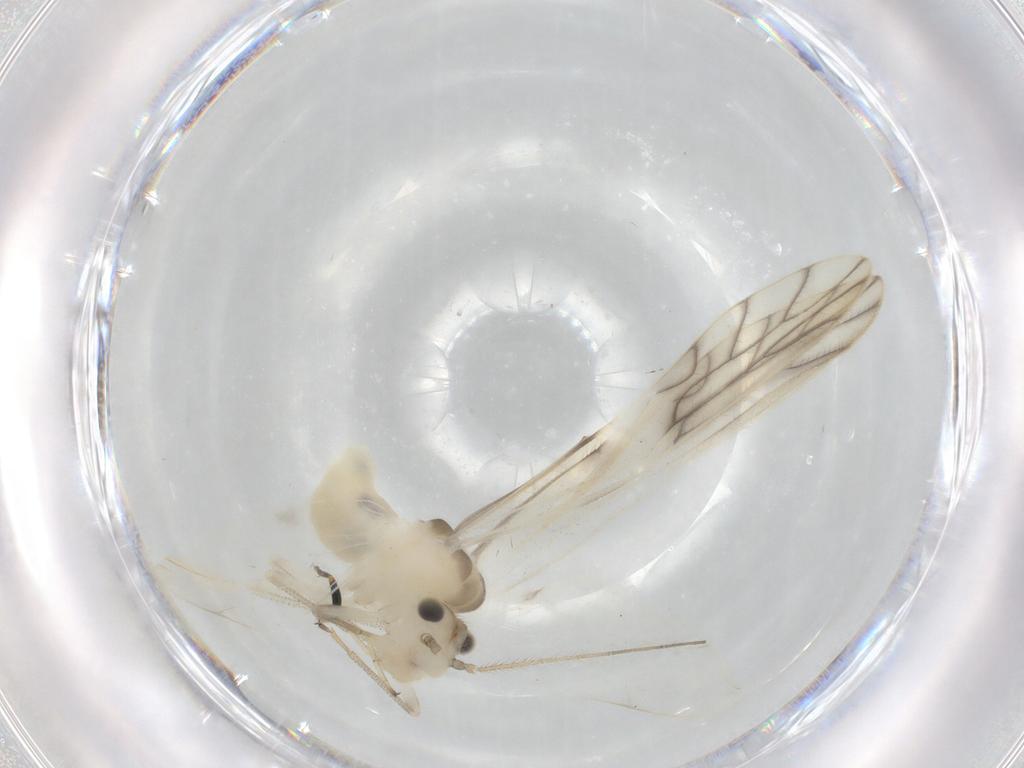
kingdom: Animalia
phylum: Arthropoda
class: Insecta
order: Psocodea
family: Caeciliusidae
